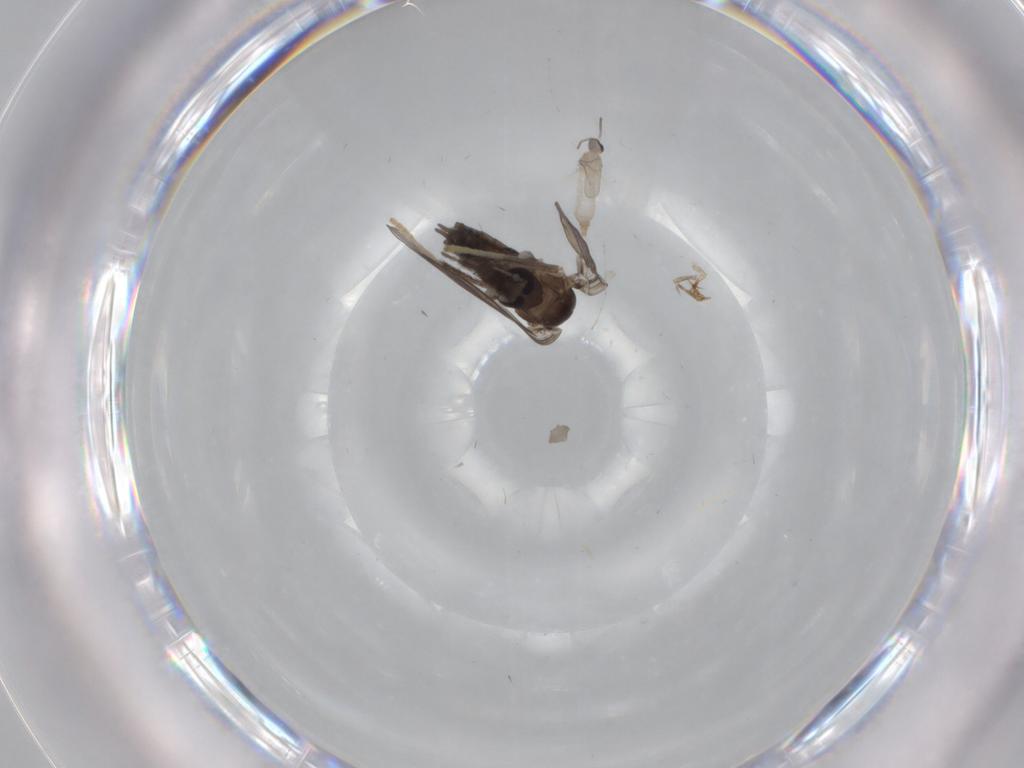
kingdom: Animalia
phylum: Arthropoda
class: Insecta
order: Diptera
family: Psychodidae
